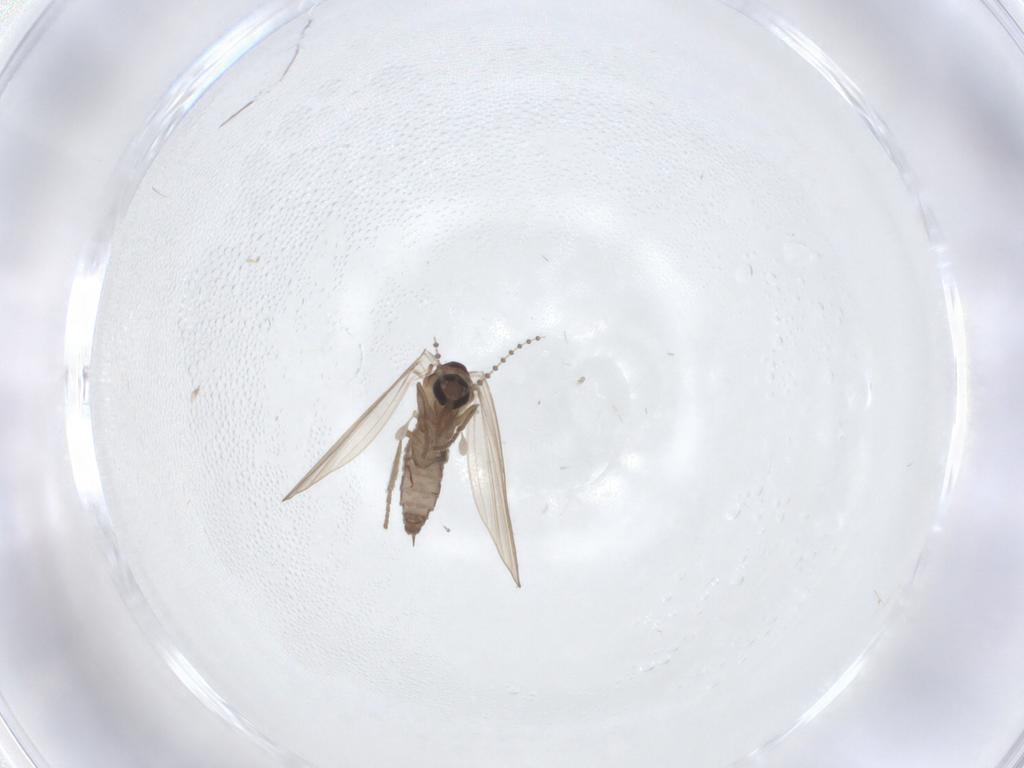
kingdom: Animalia
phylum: Arthropoda
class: Insecta
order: Diptera
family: Psychodidae
